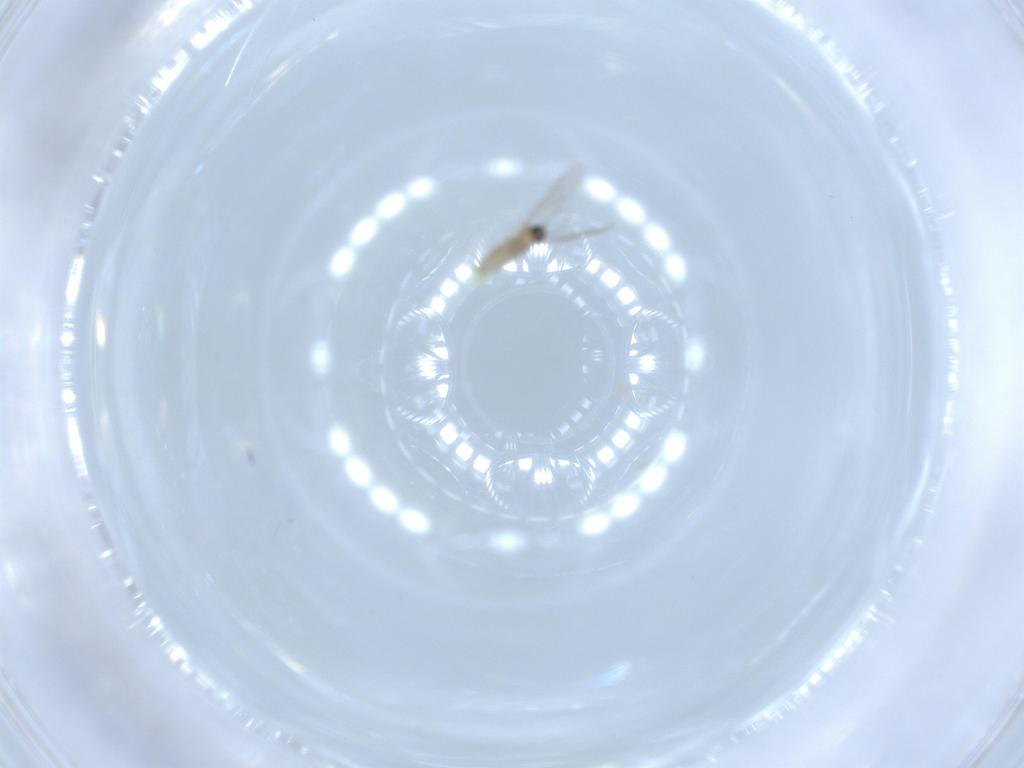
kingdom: Animalia
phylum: Arthropoda
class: Insecta
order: Diptera
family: Cecidomyiidae
